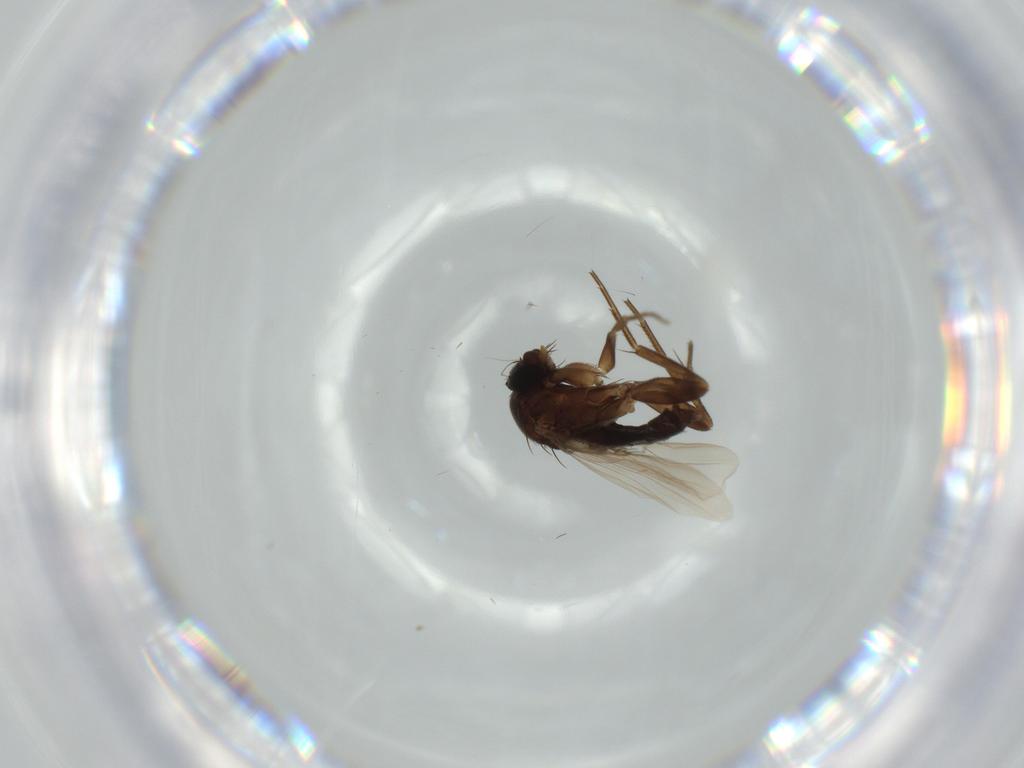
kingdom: Animalia
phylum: Arthropoda
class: Insecta
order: Diptera
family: Phoridae
